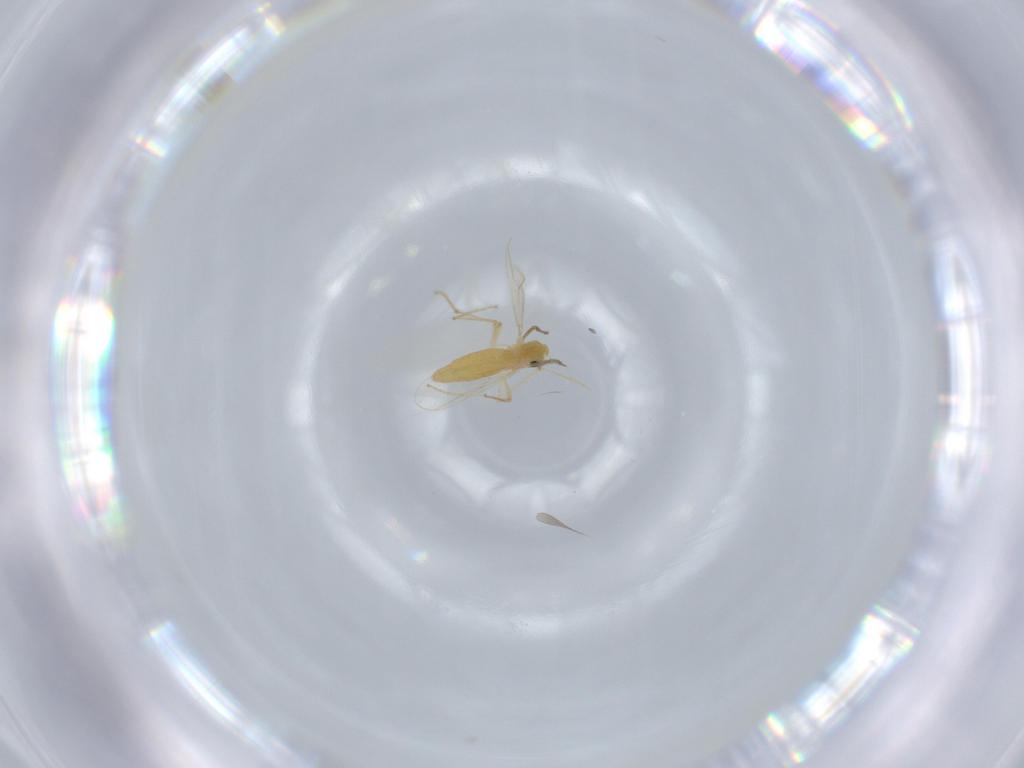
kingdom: Animalia
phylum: Arthropoda
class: Insecta
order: Diptera
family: Chironomidae
